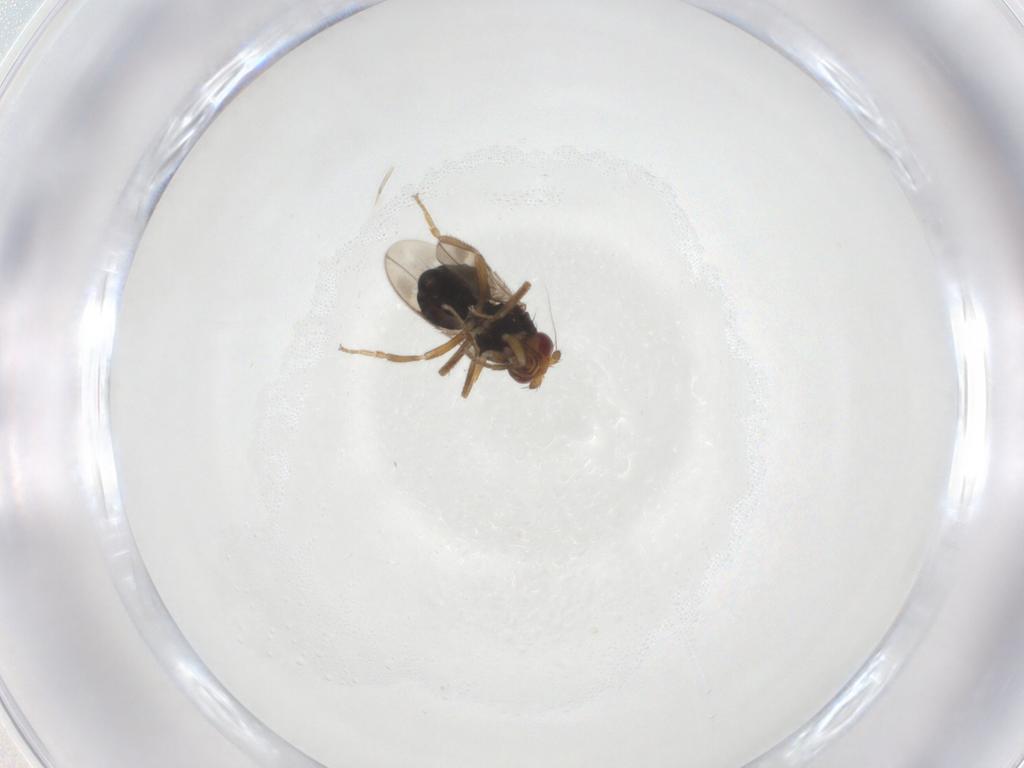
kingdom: Animalia
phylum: Arthropoda
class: Insecta
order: Diptera
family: Sphaeroceridae
